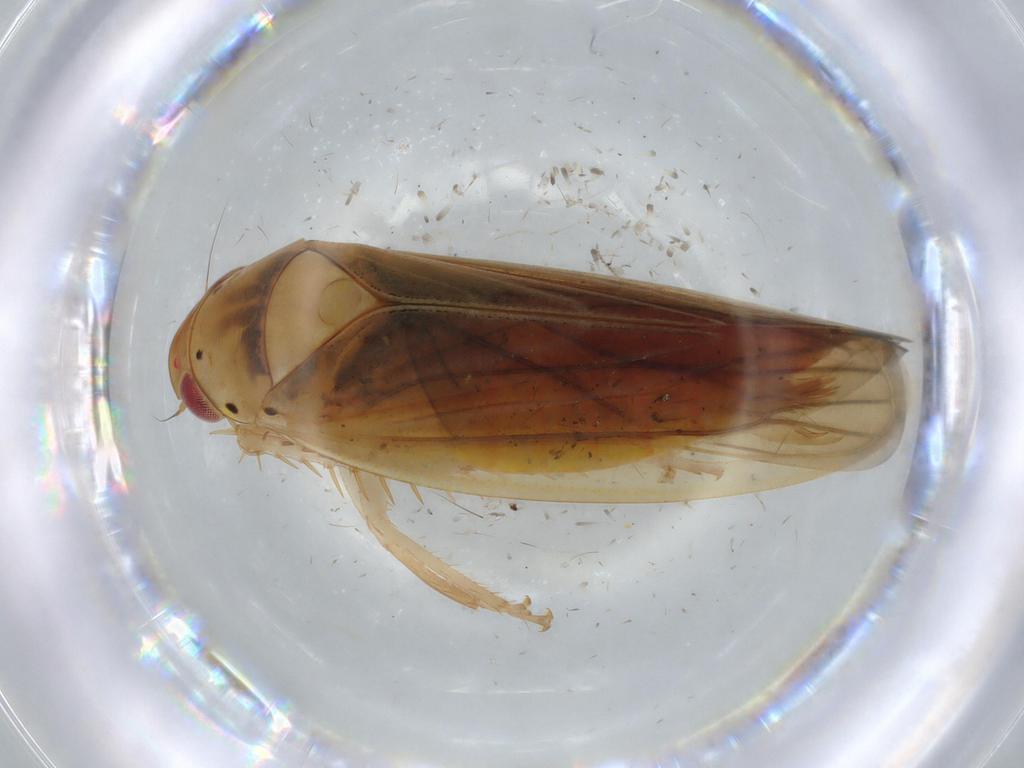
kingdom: Animalia
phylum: Arthropoda
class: Insecta
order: Hemiptera
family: Cicadellidae
